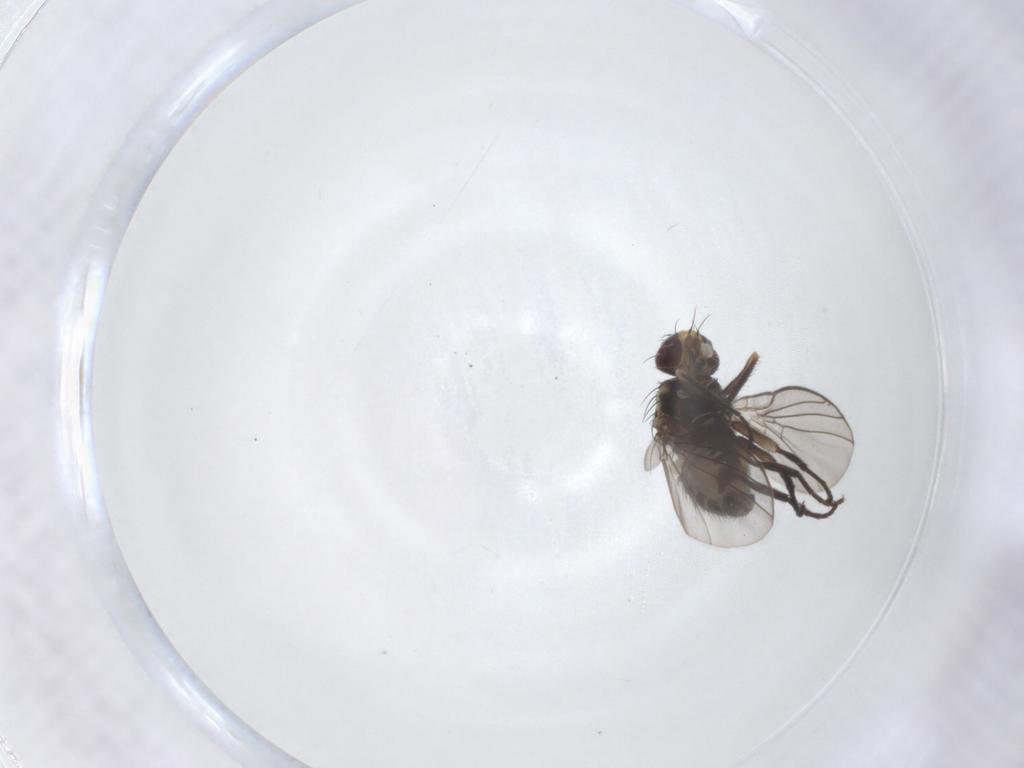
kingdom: Animalia
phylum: Arthropoda
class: Insecta
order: Diptera
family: Agromyzidae
